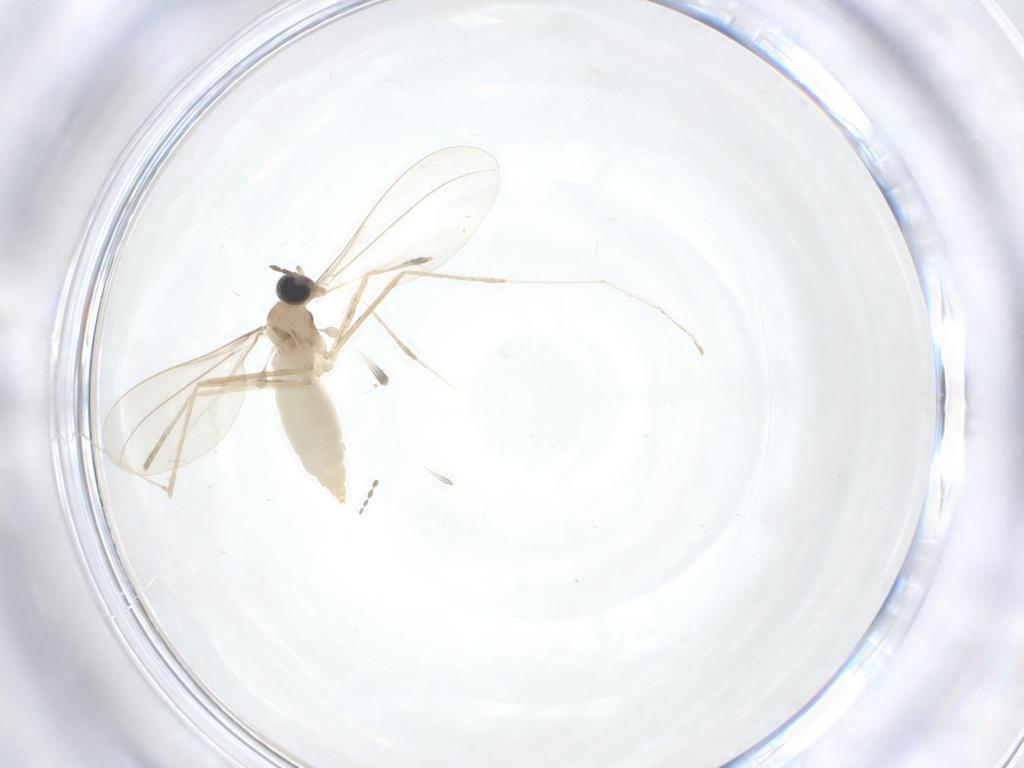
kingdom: Animalia
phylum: Arthropoda
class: Insecta
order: Diptera
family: Cecidomyiidae
